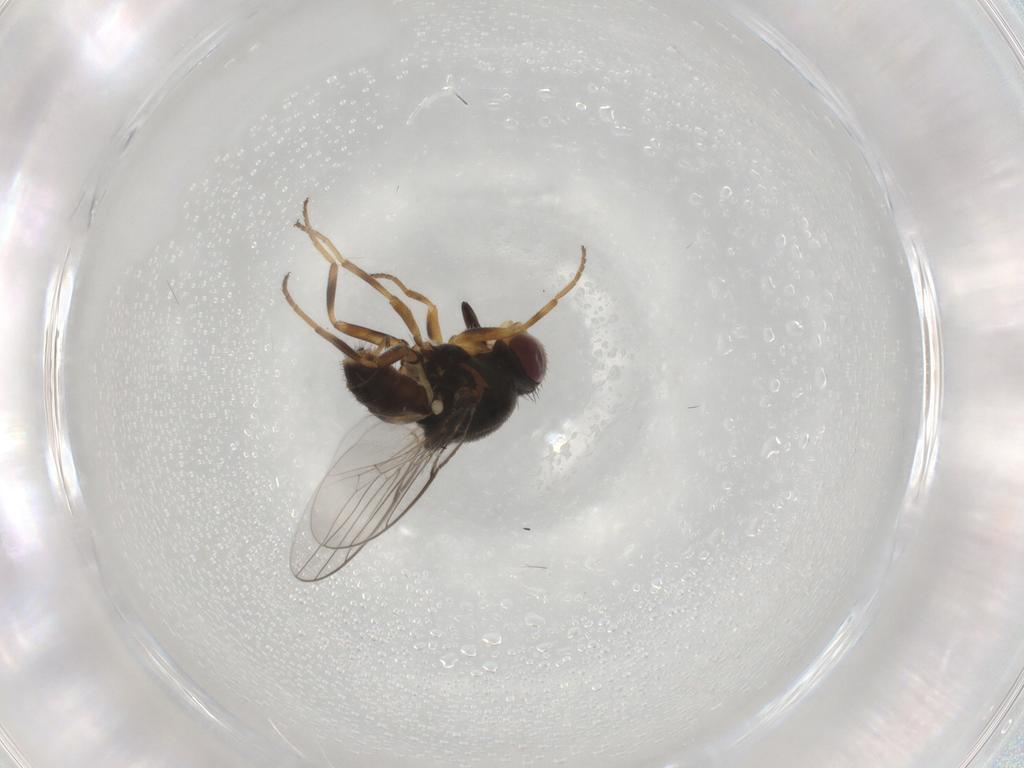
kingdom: Animalia
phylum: Arthropoda
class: Insecta
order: Diptera
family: Chloropidae
